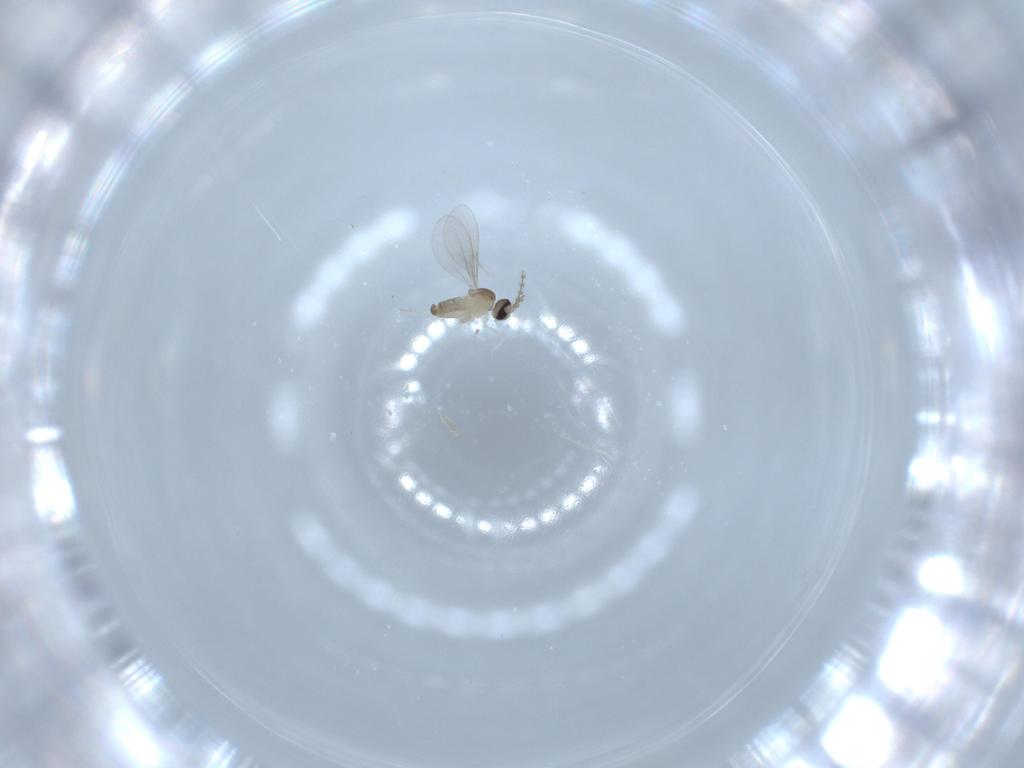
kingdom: Animalia
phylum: Arthropoda
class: Insecta
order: Diptera
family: Cecidomyiidae
